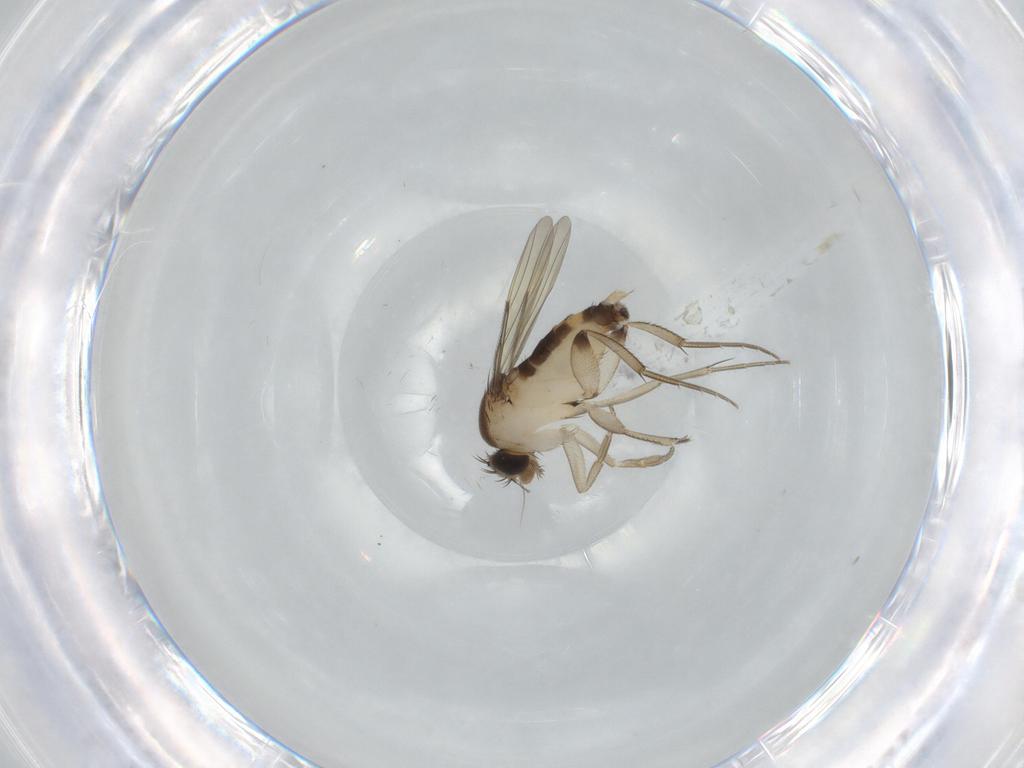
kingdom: Animalia
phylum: Arthropoda
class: Insecta
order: Diptera
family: Phoridae
